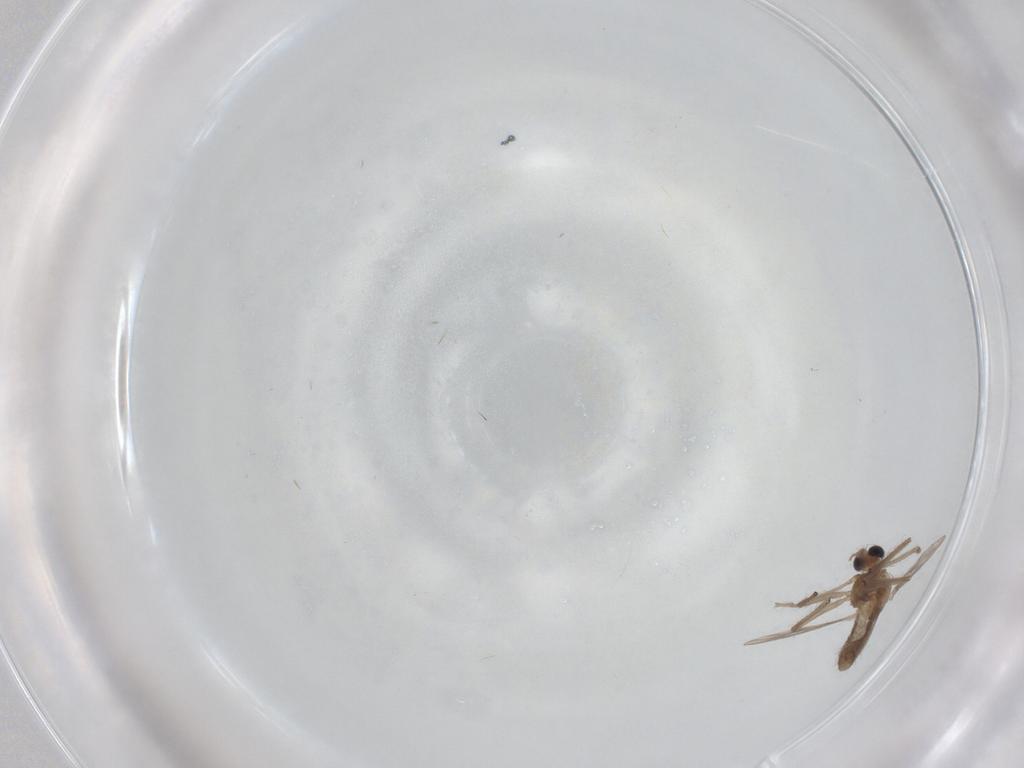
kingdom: Animalia
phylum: Arthropoda
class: Insecta
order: Diptera
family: Chironomidae
